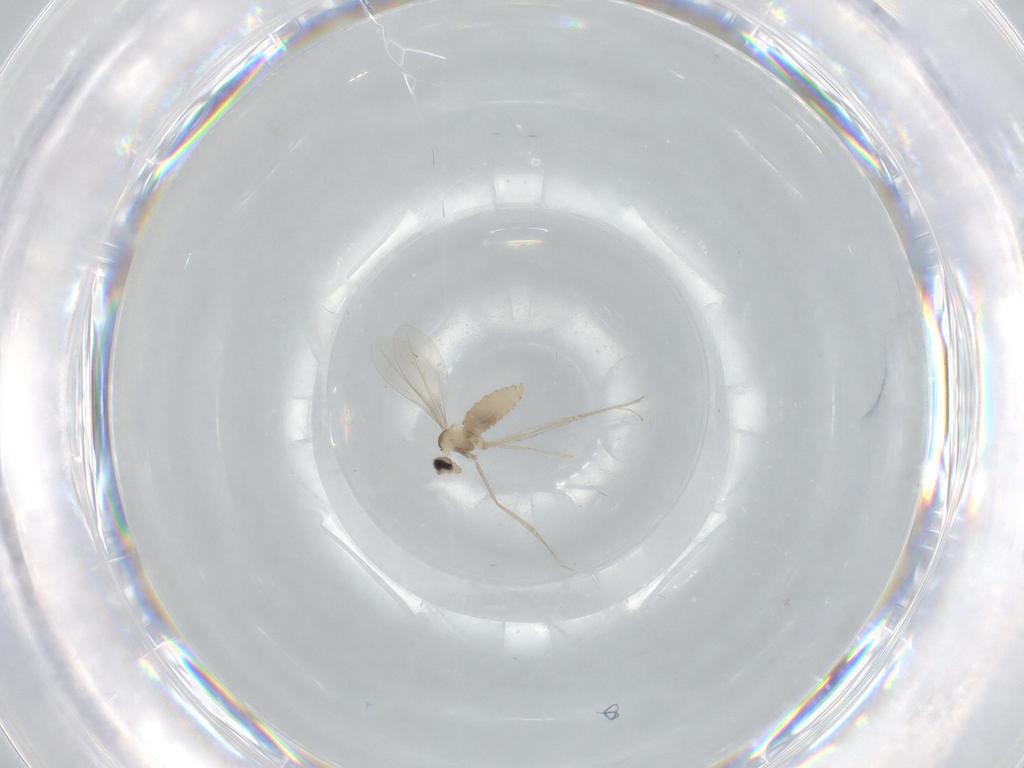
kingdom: Animalia
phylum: Arthropoda
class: Insecta
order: Diptera
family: Cecidomyiidae
